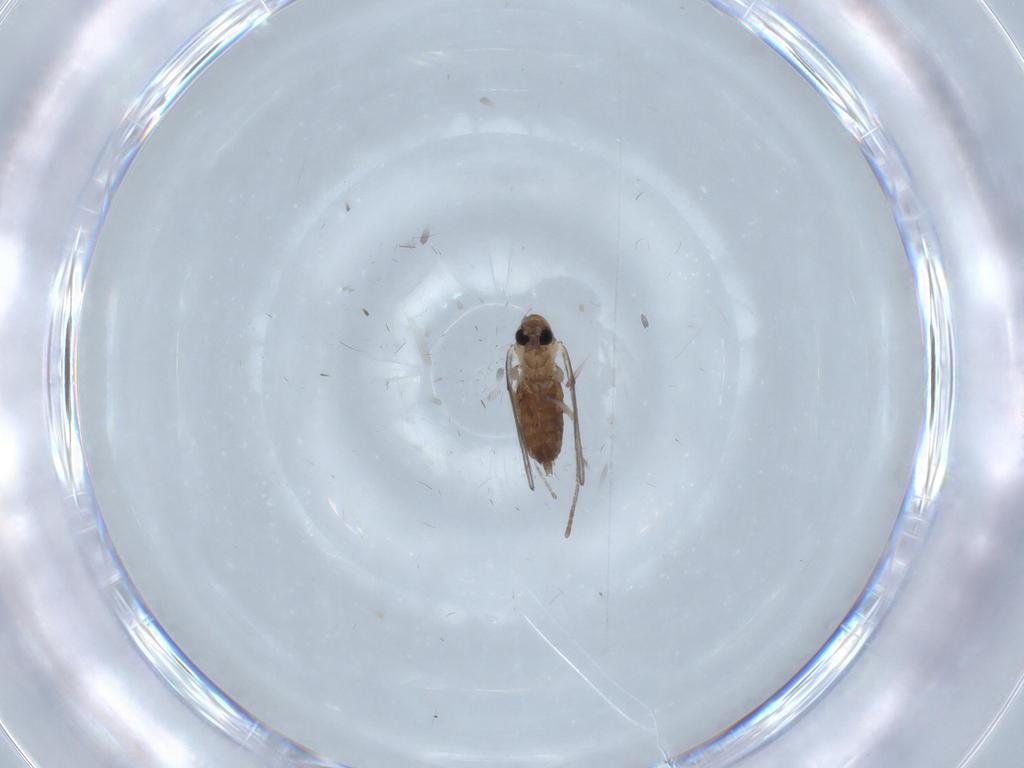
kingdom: Animalia
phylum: Arthropoda
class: Insecta
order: Diptera
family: Cecidomyiidae
